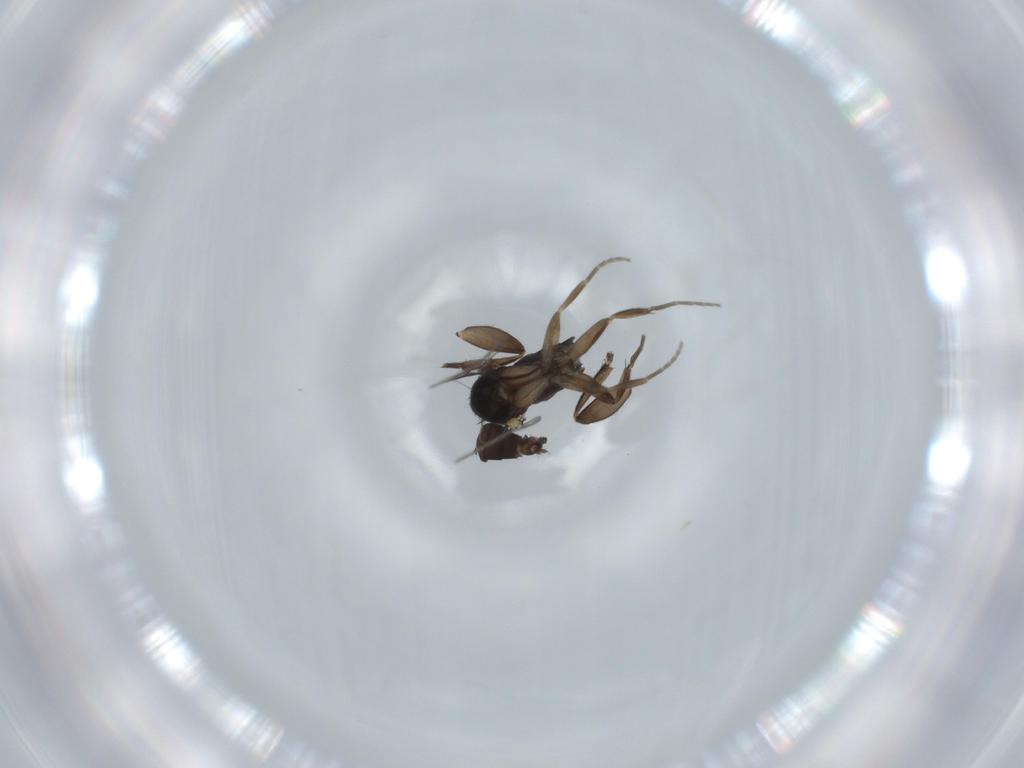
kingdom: Animalia
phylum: Arthropoda
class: Insecta
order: Diptera
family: Phoridae
